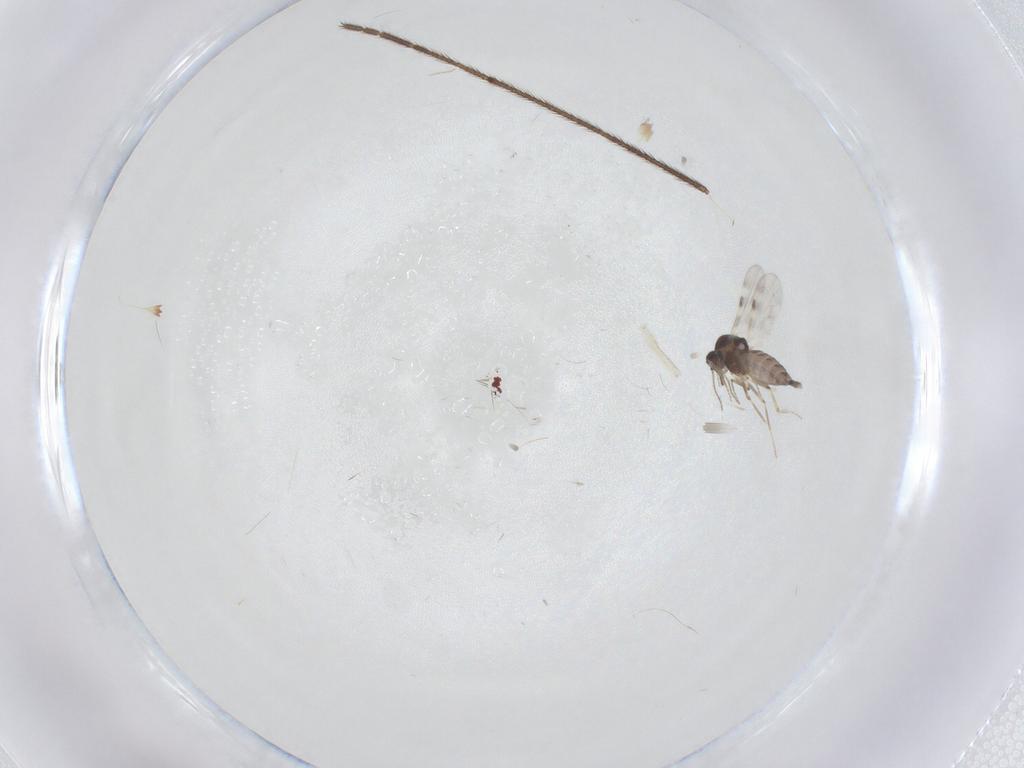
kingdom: Animalia
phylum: Arthropoda
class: Insecta
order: Diptera
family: Limoniidae
